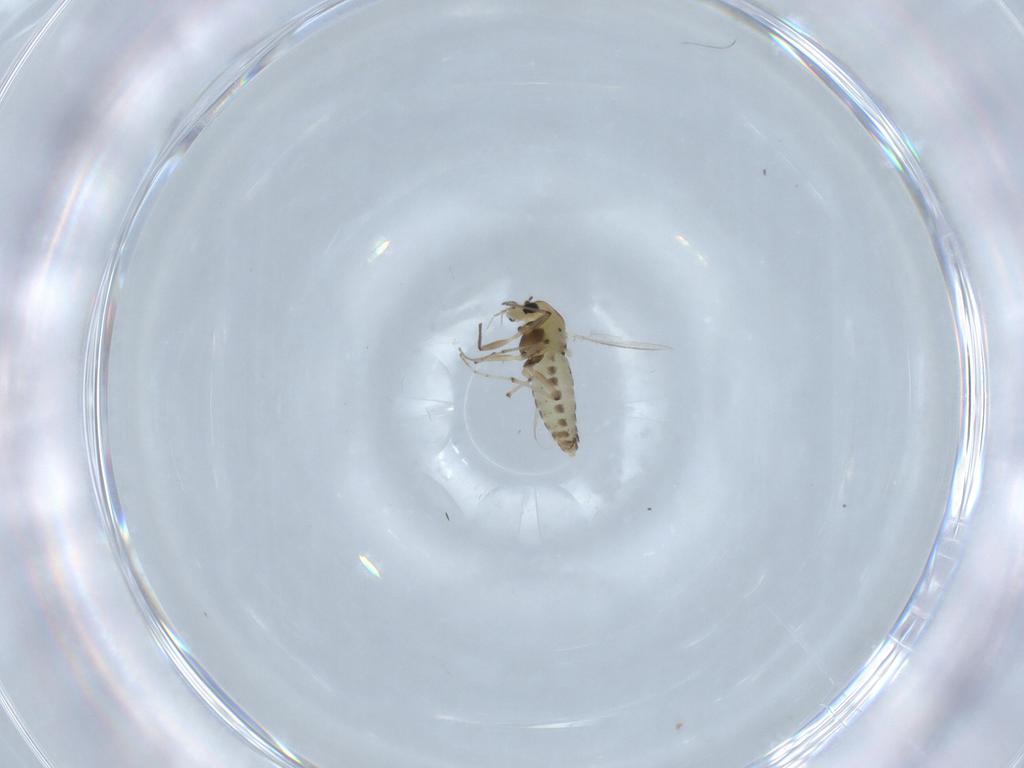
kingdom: Animalia
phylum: Arthropoda
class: Insecta
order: Diptera
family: Chironomidae
